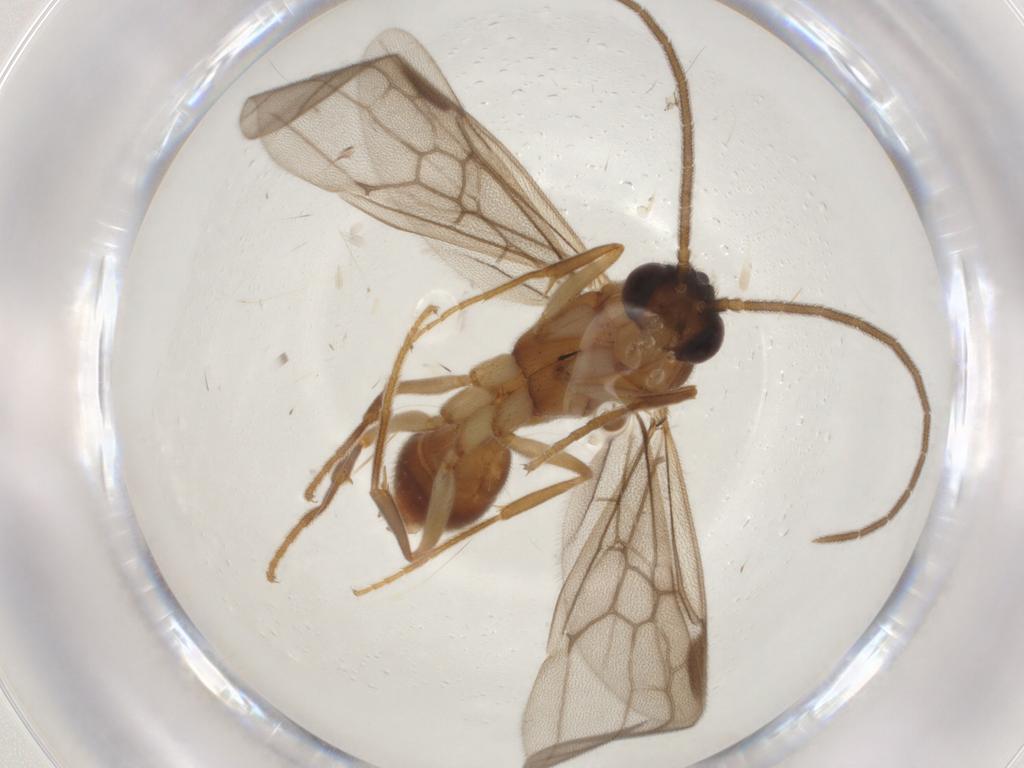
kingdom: Animalia
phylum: Arthropoda
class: Insecta
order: Hymenoptera
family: Formicidae
